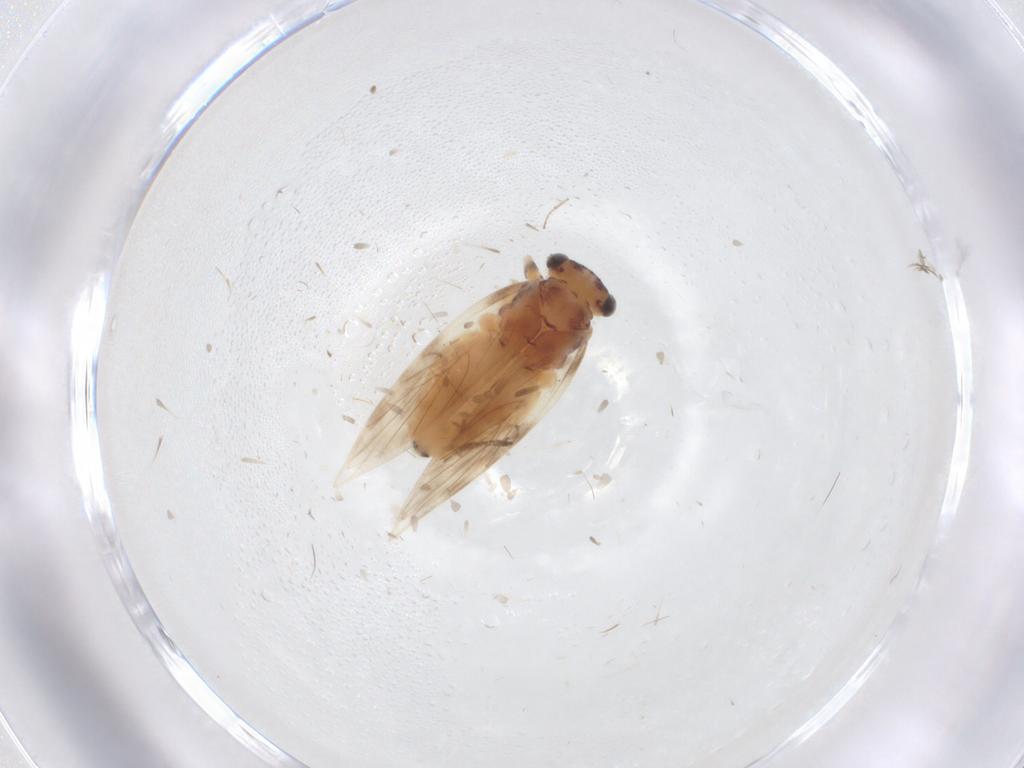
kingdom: Animalia
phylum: Arthropoda
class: Insecta
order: Psocodea
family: Lepidopsocidae
